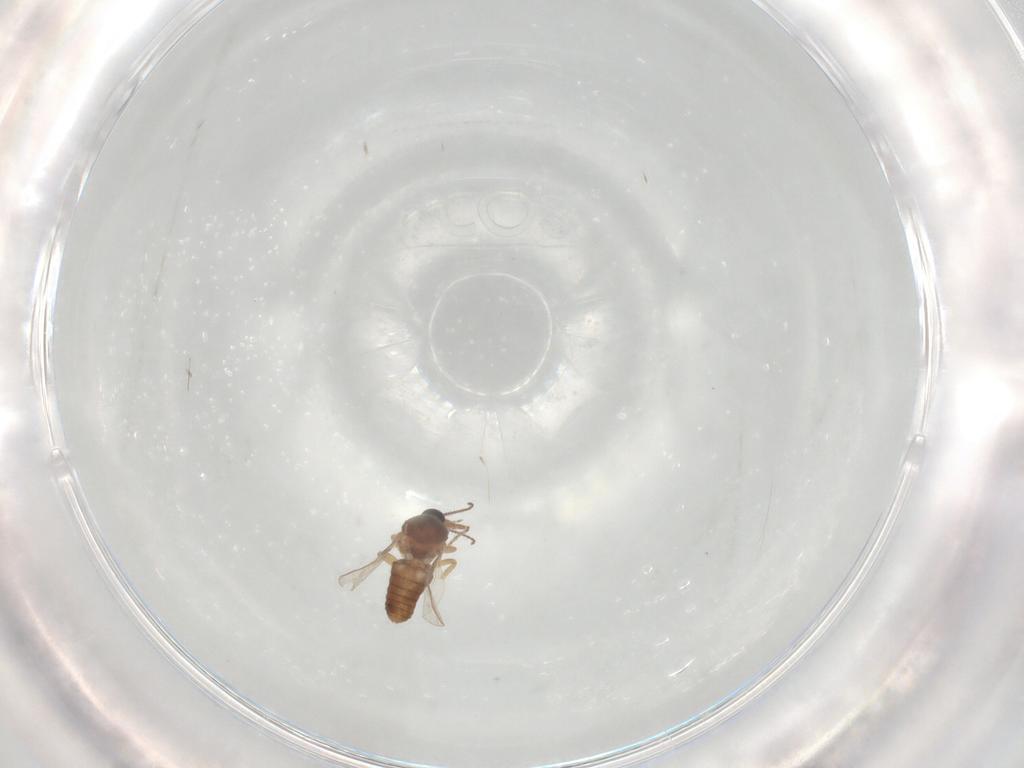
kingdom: Animalia
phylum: Arthropoda
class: Insecta
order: Diptera
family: Ceratopogonidae
